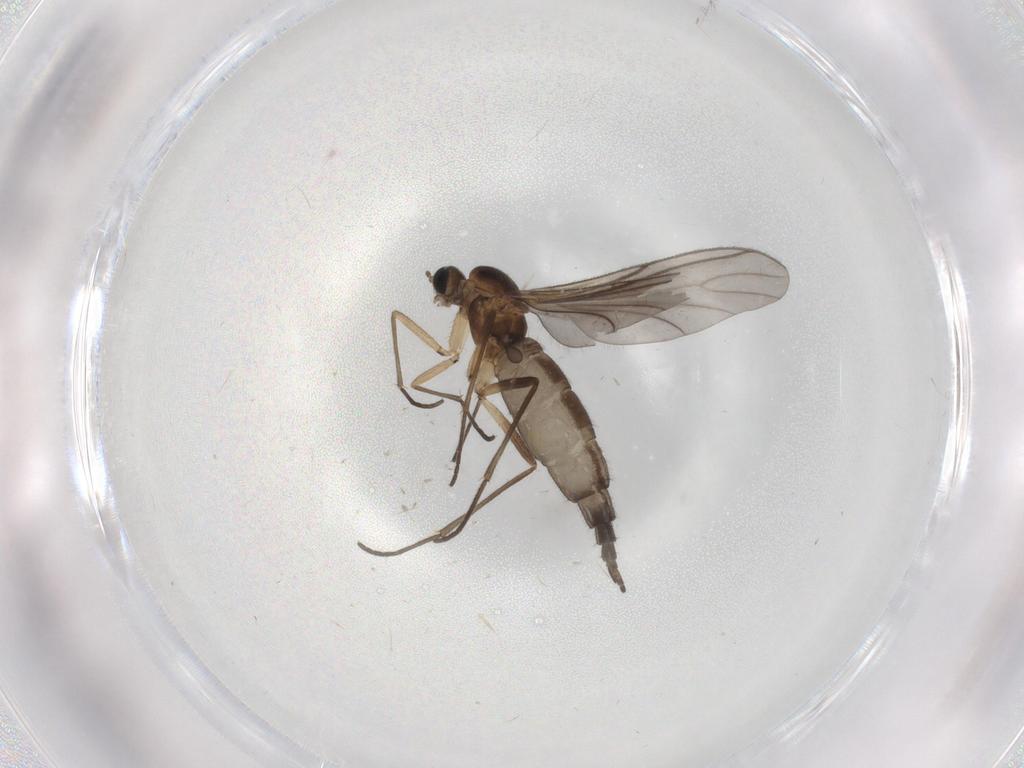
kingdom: Animalia
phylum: Arthropoda
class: Insecta
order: Diptera
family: Sciaridae
